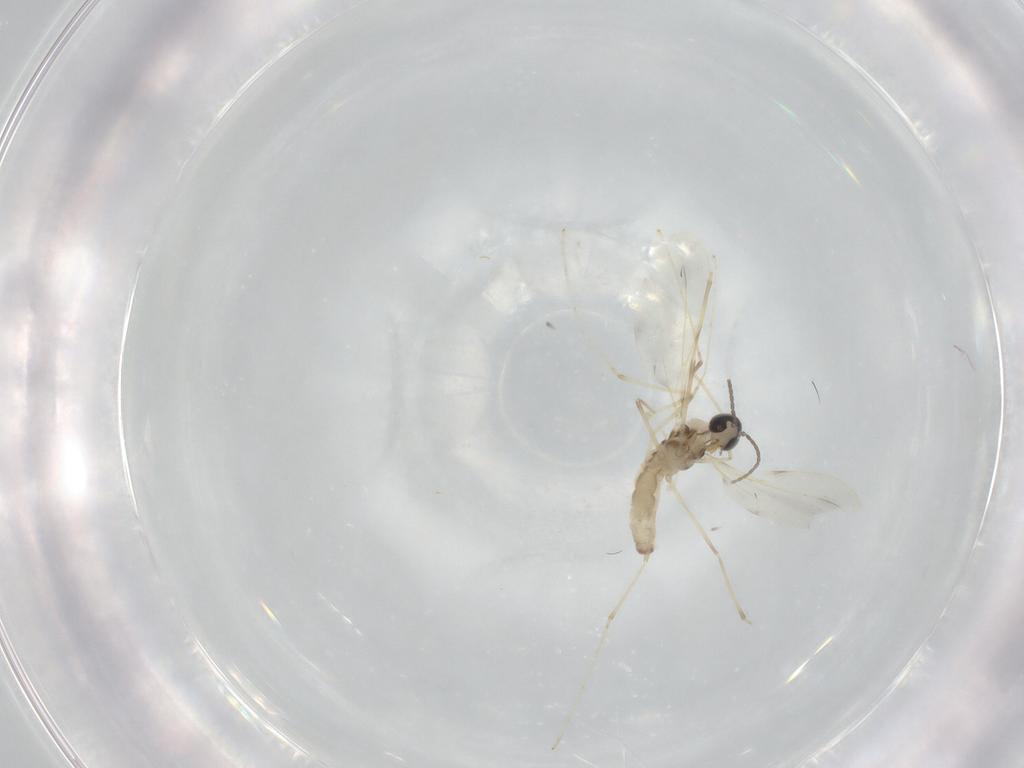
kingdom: Animalia
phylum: Arthropoda
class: Insecta
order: Diptera
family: Cecidomyiidae
